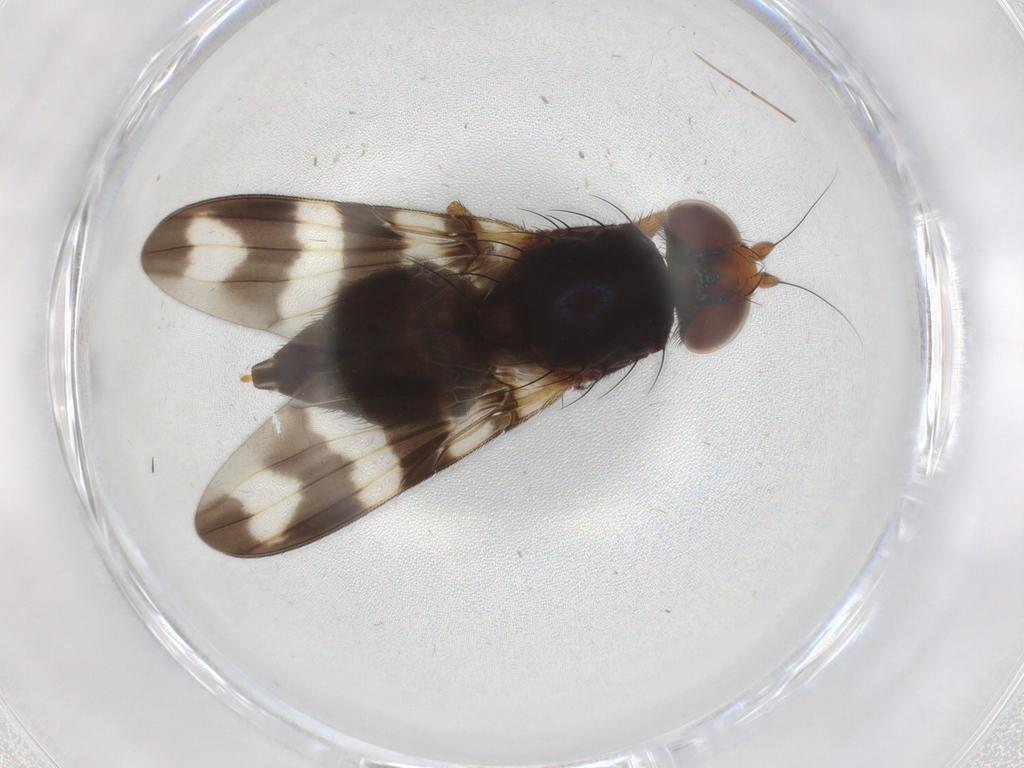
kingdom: Animalia
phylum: Arthropoda
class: Insecta
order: Diptera
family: Ulidiidae
